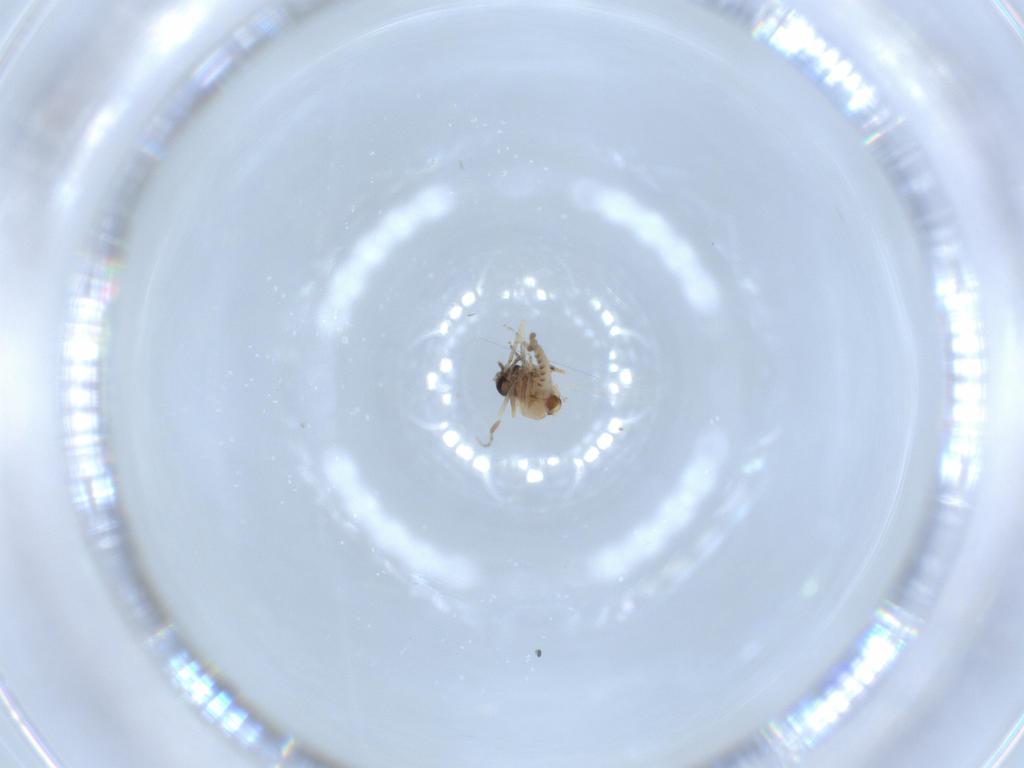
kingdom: Animalia
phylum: Arthropoda
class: Insecta
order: Diptera
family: Ceratopogonidae
